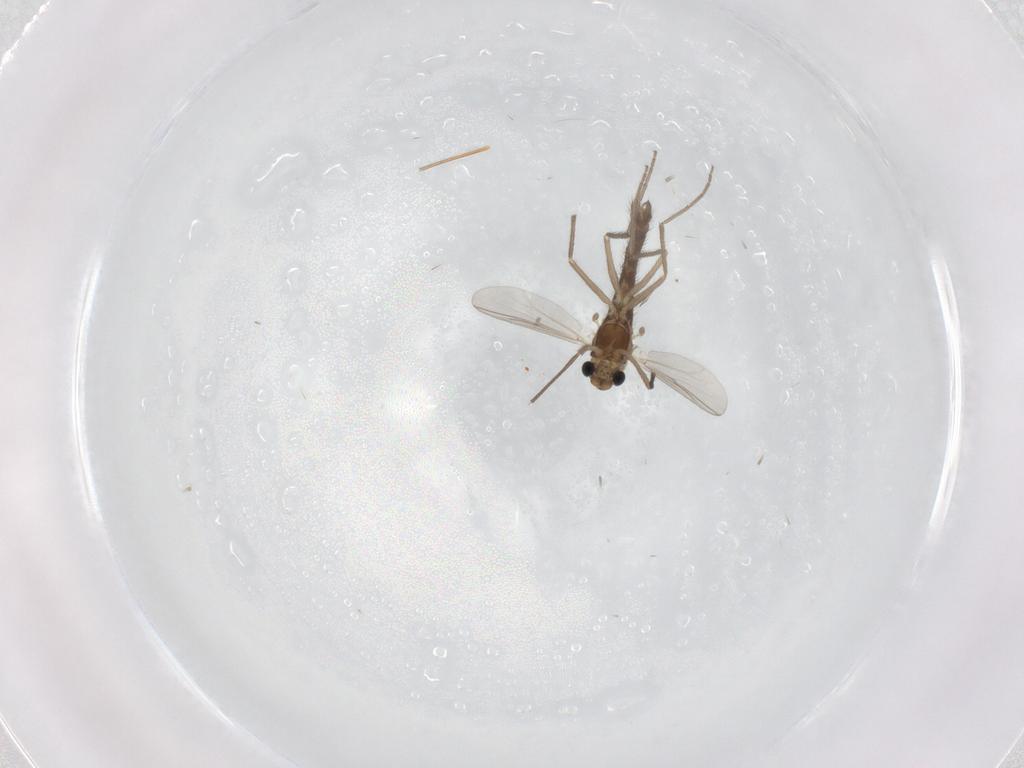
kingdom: Animalia
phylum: Arthropoda
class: Insecta
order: Diptera
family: Chironomidae
